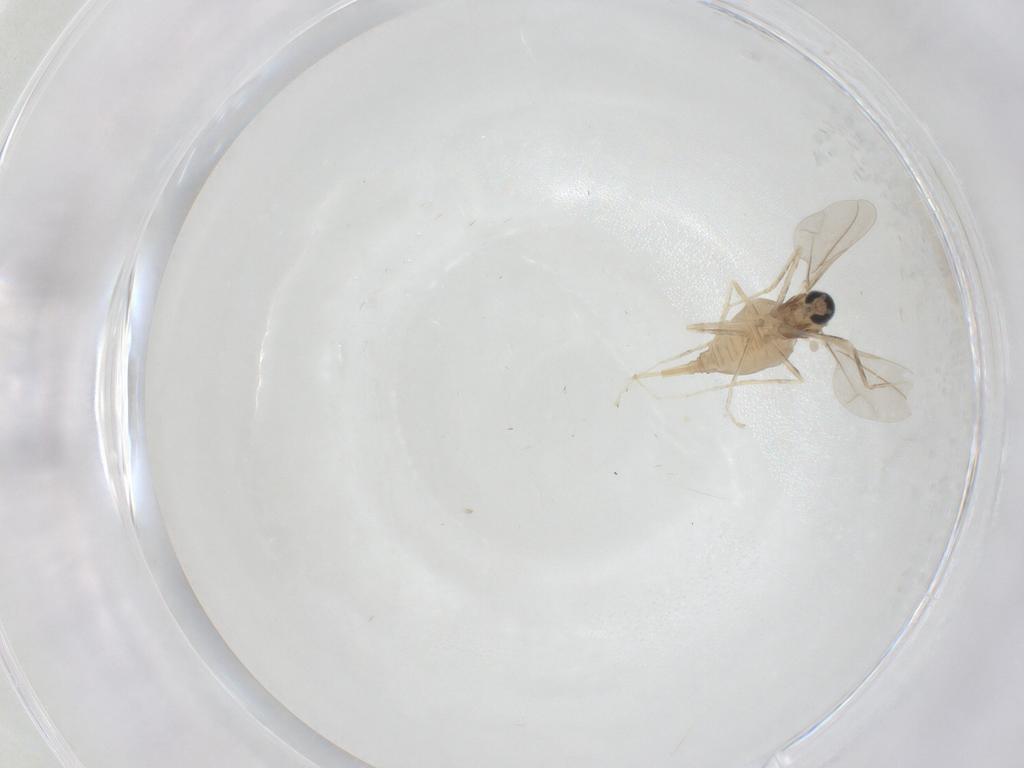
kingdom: Animalia
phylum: Arthropoda
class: Insecta
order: Diptera
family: Cecidomyiidae
